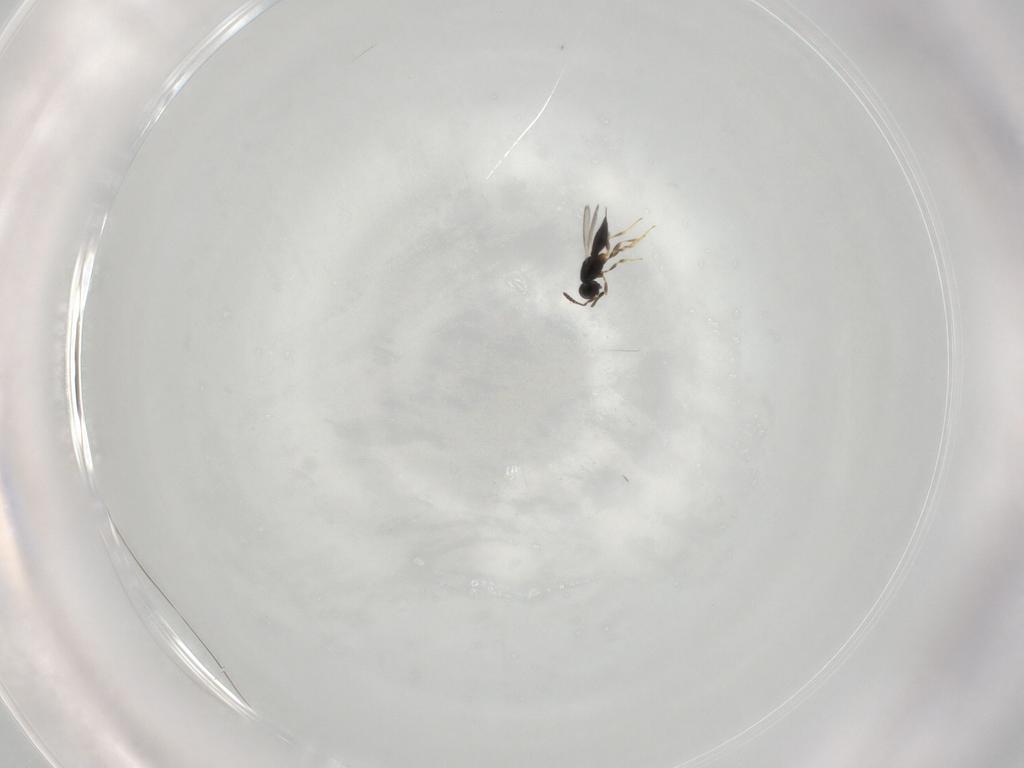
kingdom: Animalia
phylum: Arthropoda
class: Insecta
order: Hymenoptera
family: Scelionidae
